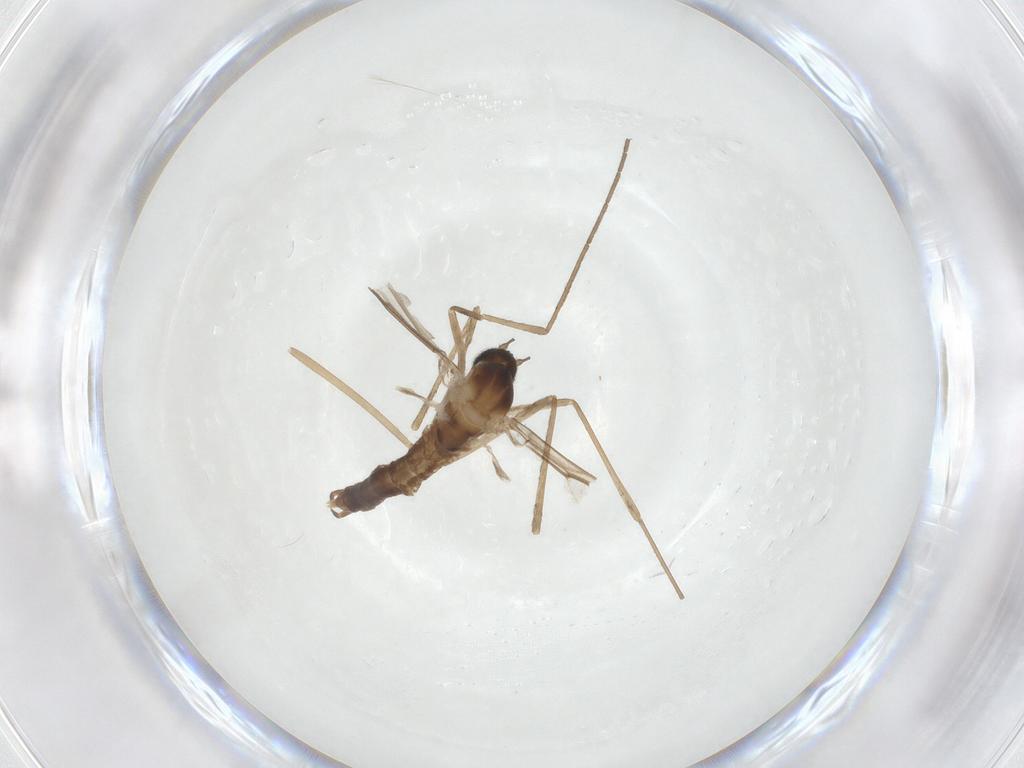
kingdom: Animalia
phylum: Arthropoda
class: Insecta
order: Diptera
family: Cecidomyiidae
